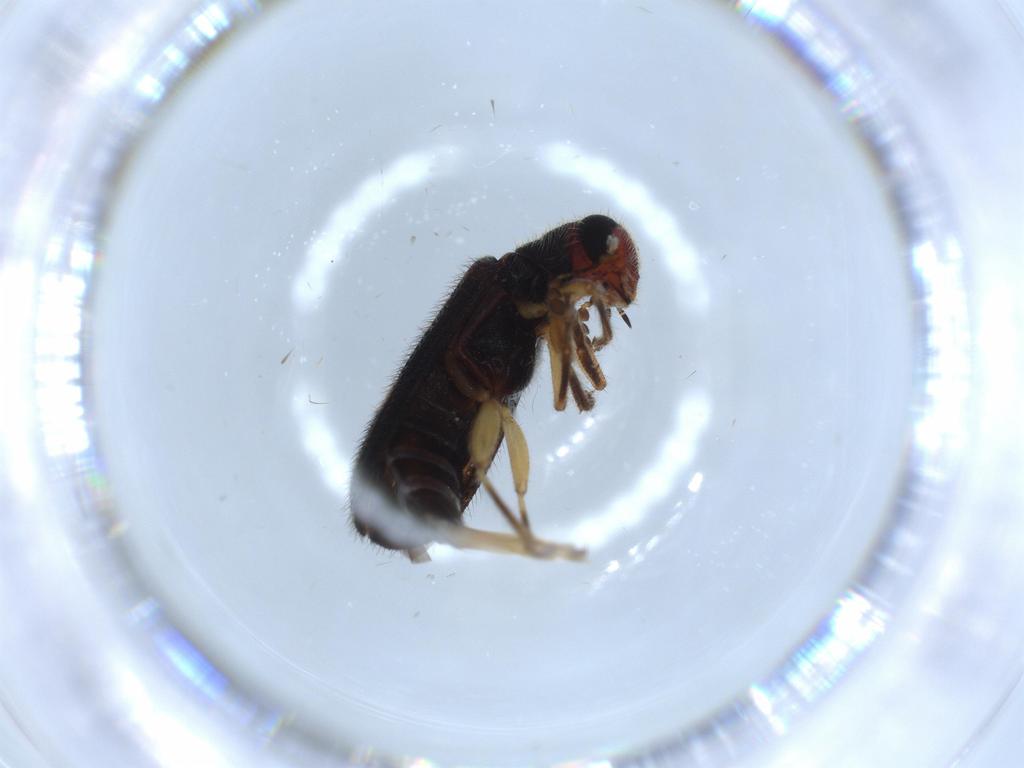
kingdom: Animalia
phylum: Arthropoda
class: Insecta
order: Coleoptera
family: Cleridae
